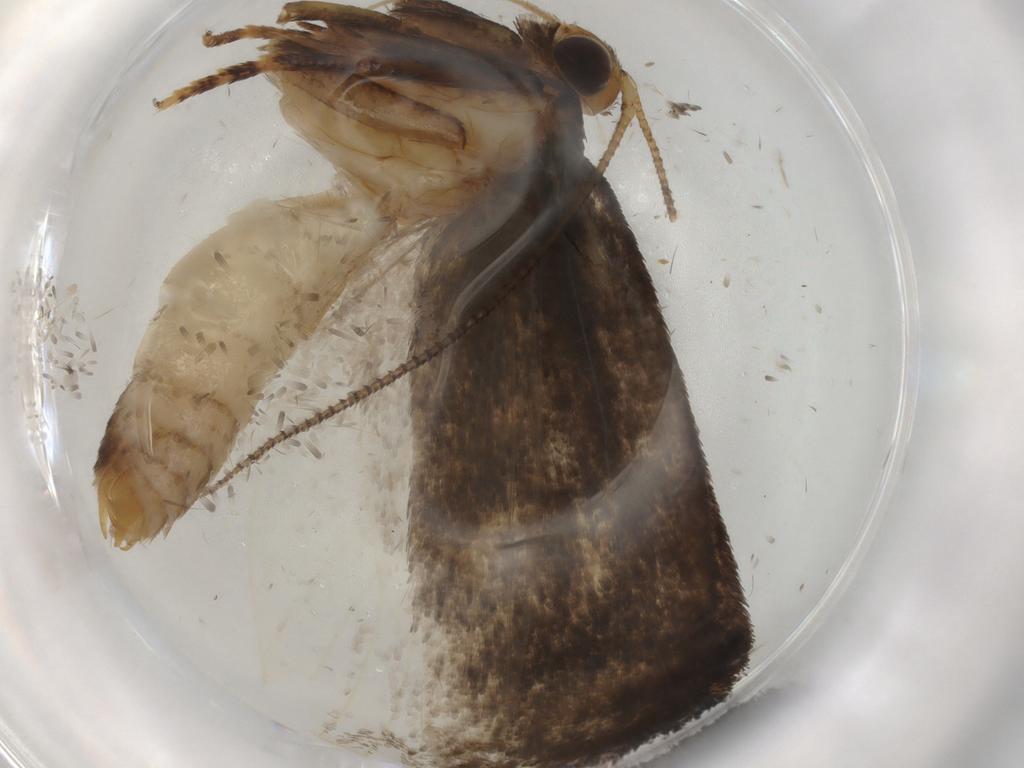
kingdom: Animalia
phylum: Arthropoda
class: Insecta
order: Lepidoptera
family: Oecophoridae
